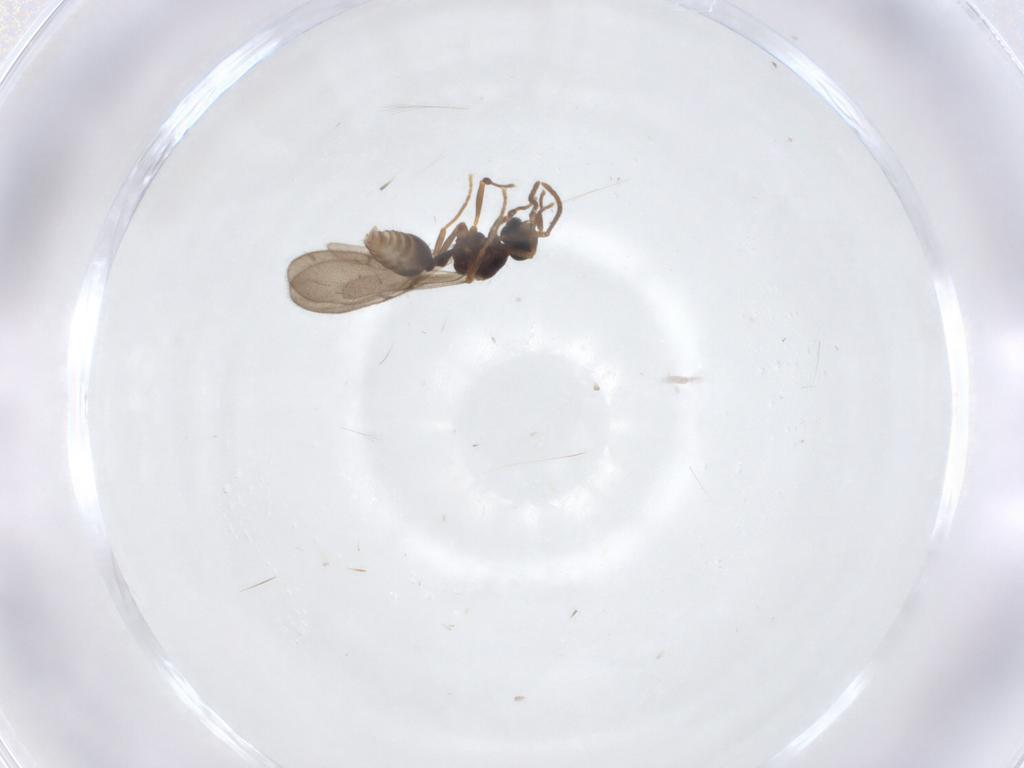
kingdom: Animalia
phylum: Arthropoda
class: Insecta
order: Hymenoptera
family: Formicidae
